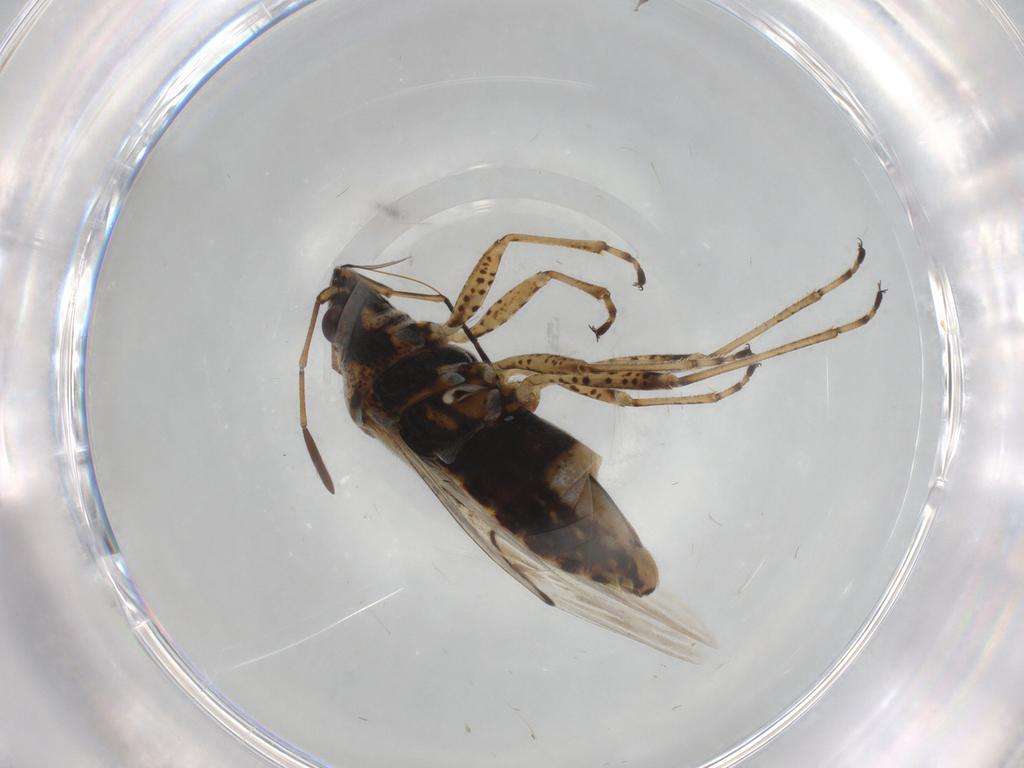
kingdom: Animalia
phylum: Arthropoda
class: Insecta
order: Hemiptera
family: Lygaeidae
